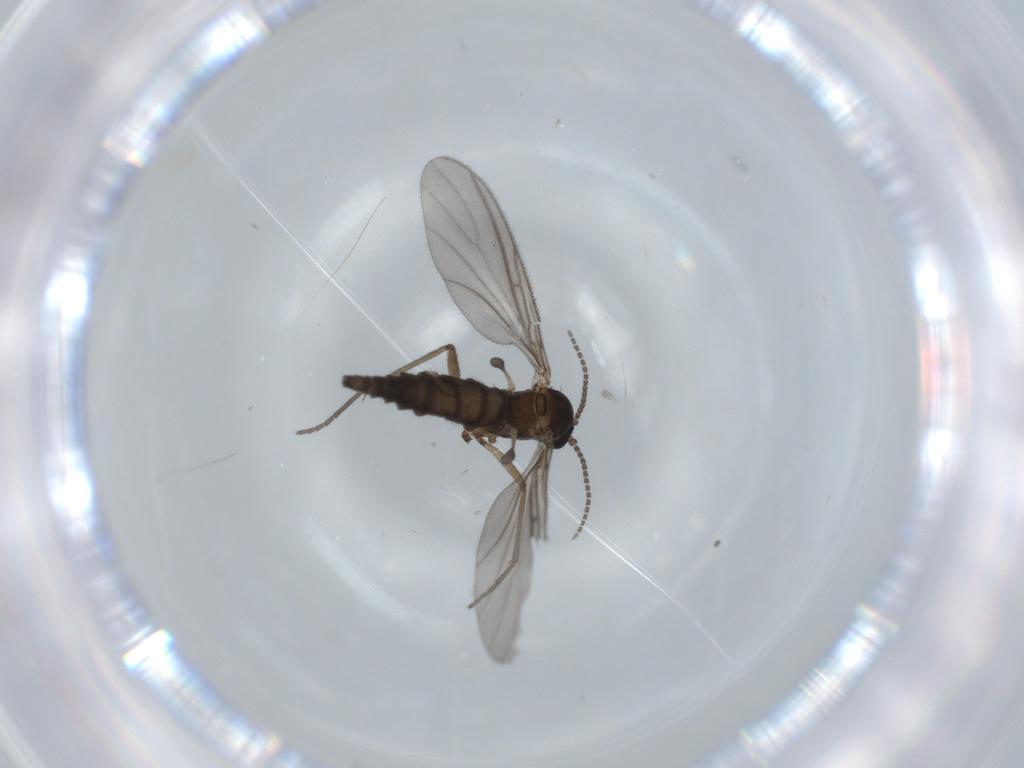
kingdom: Animalia
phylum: Arthropoda
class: Insecta
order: Diptera
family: Sciaridae
